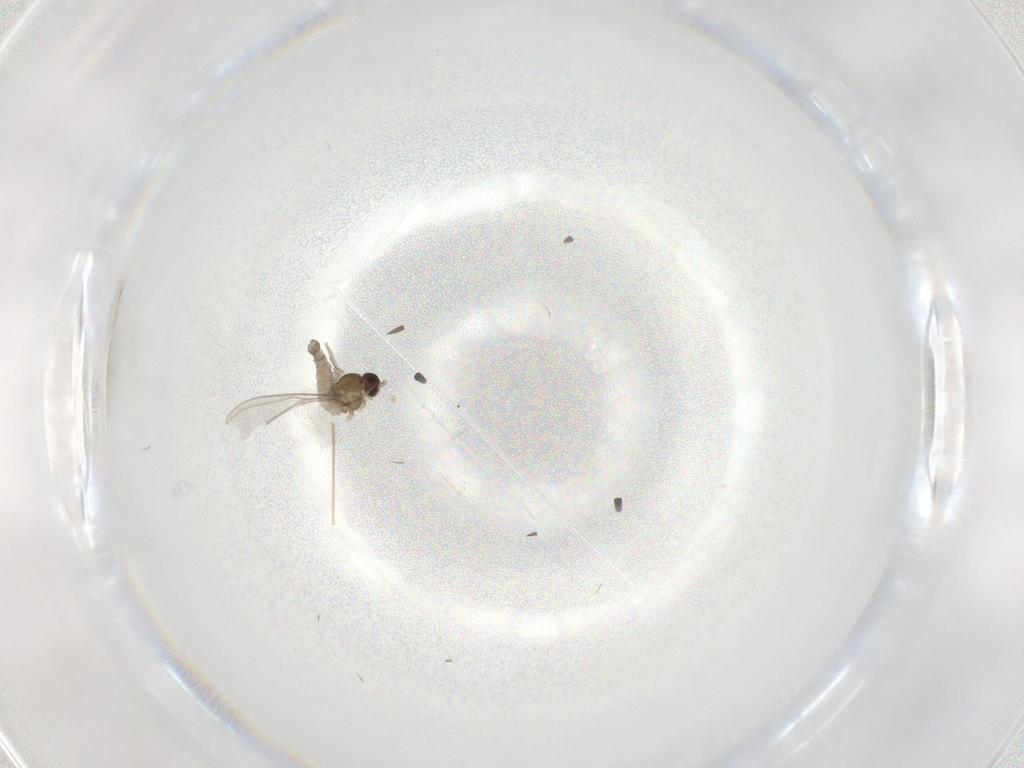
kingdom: Animalia
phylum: Arthropoda
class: Insecta
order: Diptera
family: Cecidomyiidae
